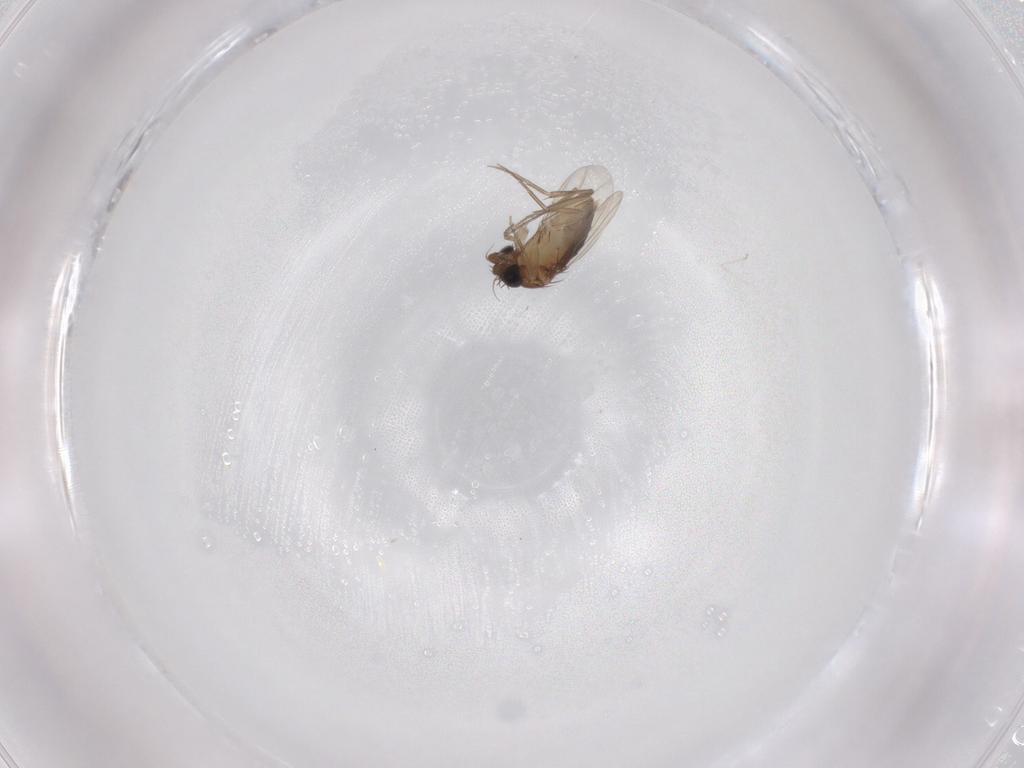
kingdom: Animalia
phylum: Arthropoda
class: Insecta
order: Diptera
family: Phoridae
